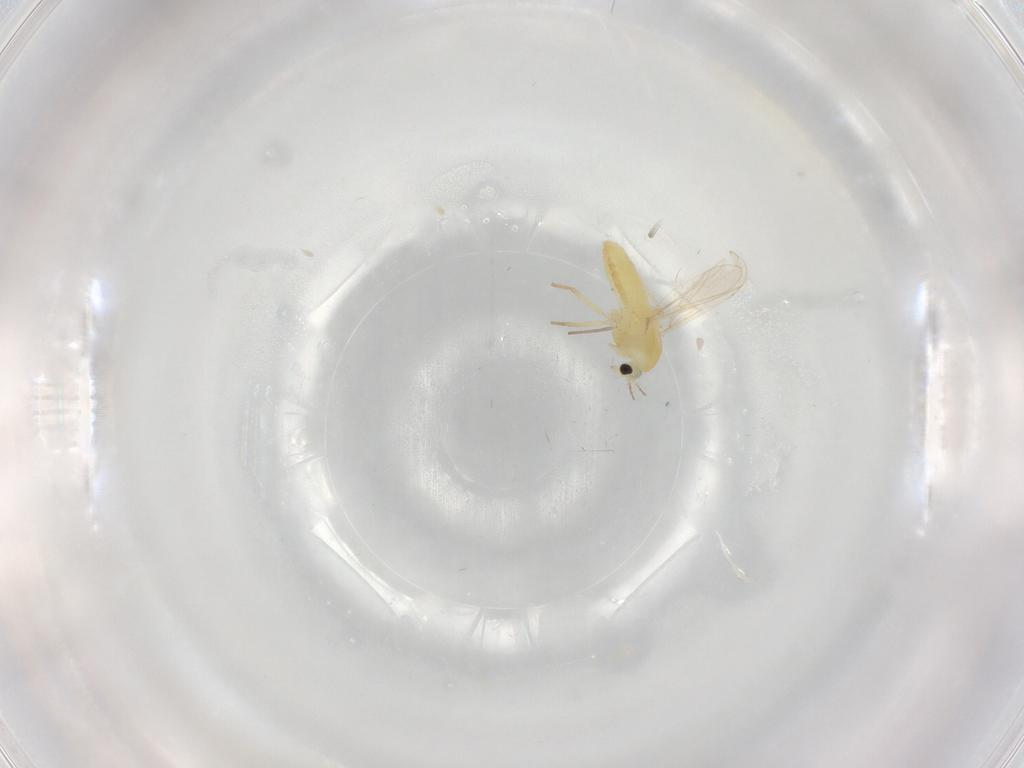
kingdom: Animalia
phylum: Arthropoda
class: Insecta
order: Diptera
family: Chironomidae
